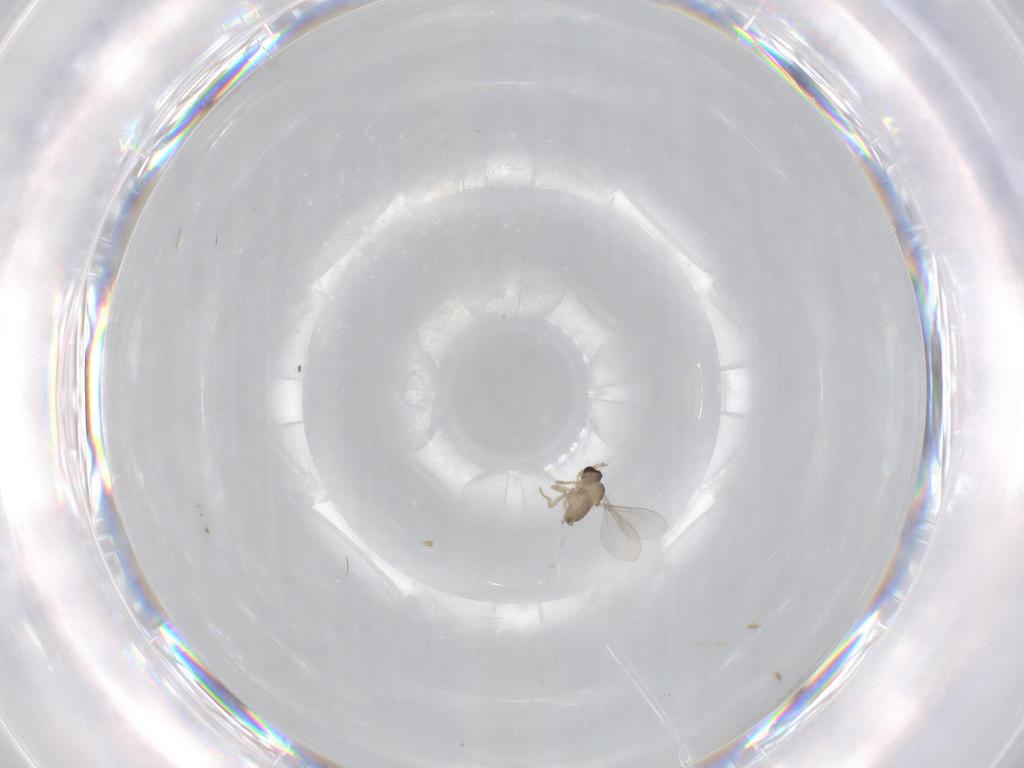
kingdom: Animalia
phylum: Arthropoda
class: Insecta
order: Diptera
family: Cecidomyiidae
